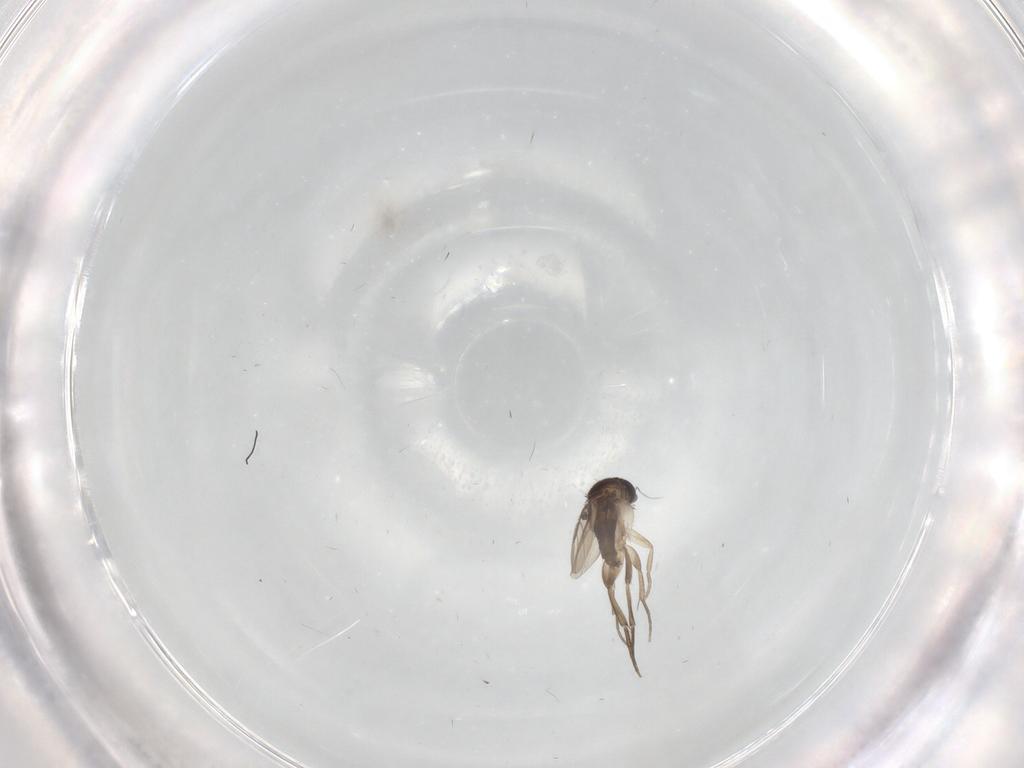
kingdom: Animalia
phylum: Arthropoda
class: Insecta
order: Diptera
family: Phoridae
